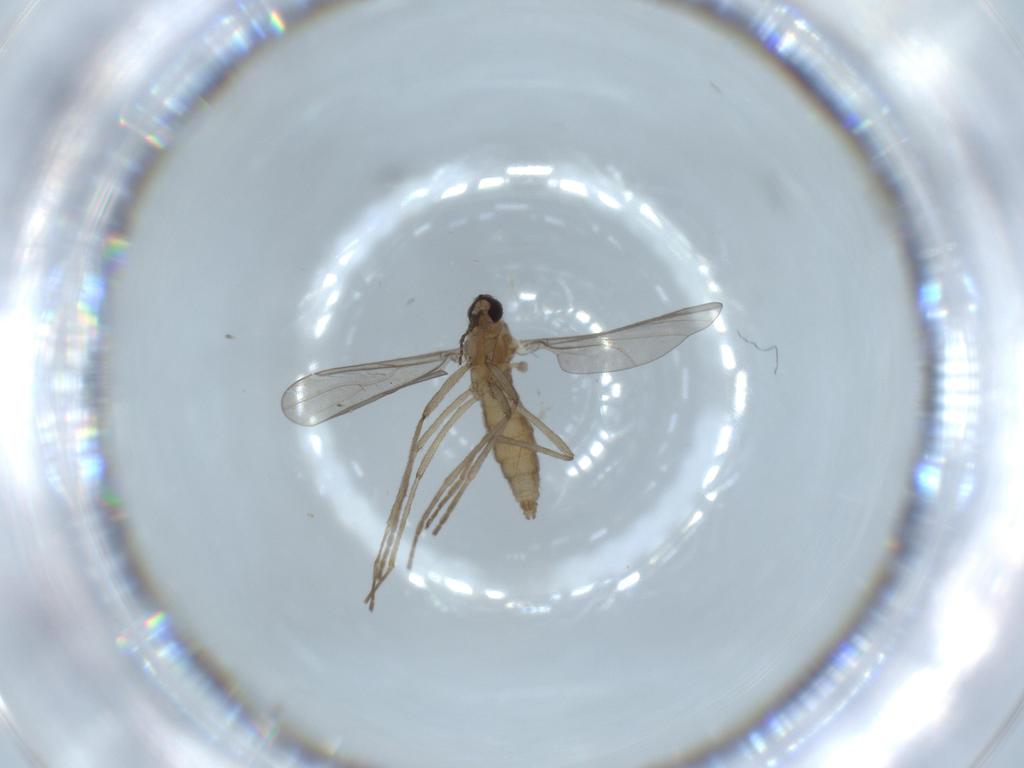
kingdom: Animalia
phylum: Arthropoda
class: Insecta
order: Diptera
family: Cecidomyiidae
